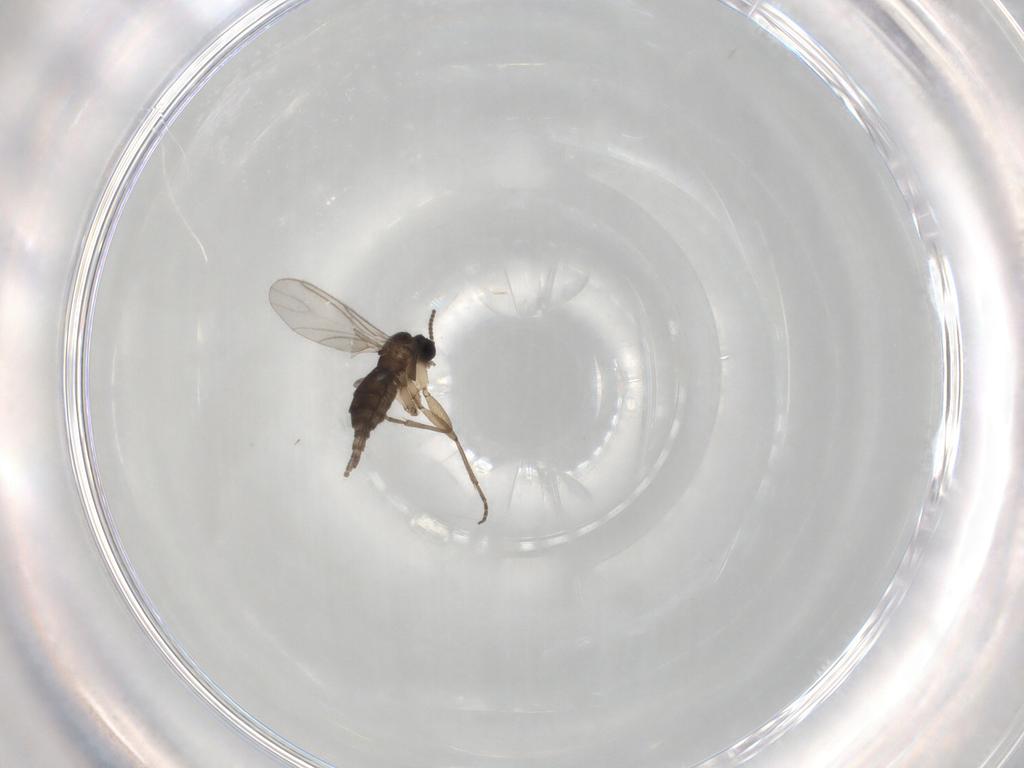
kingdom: Animalia
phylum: Arthropoda
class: Insecta
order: Diptera
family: Sciaridae
